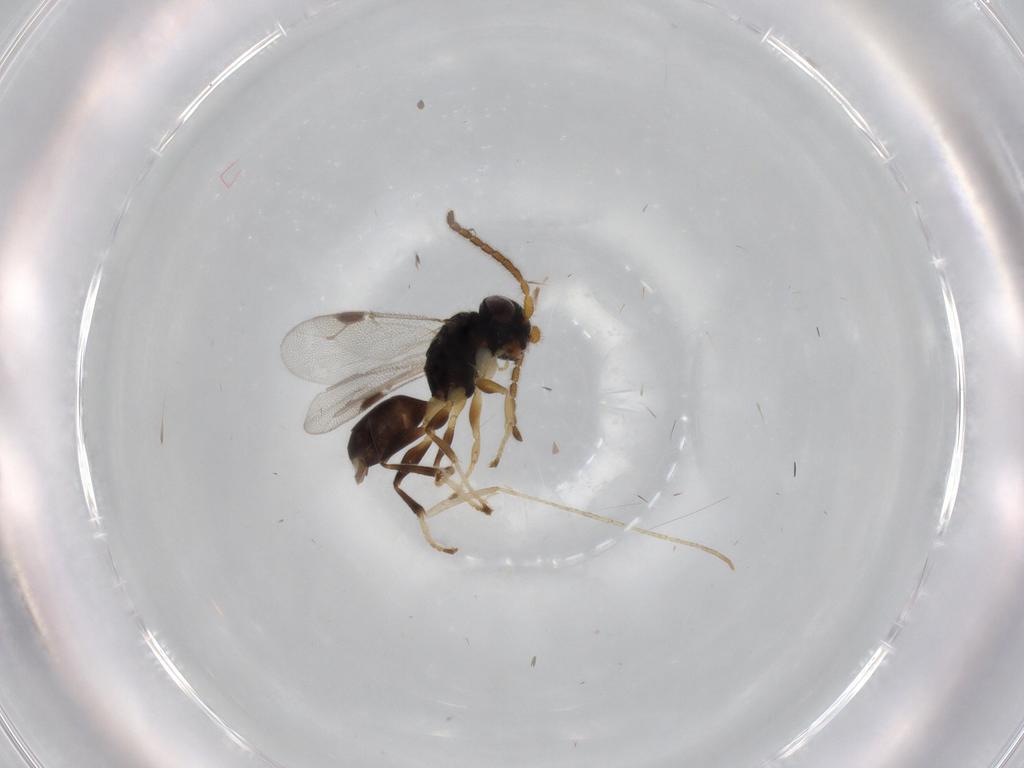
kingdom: Animalia
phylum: Arthropoda
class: Insecta
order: Hymenoptera
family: Dryinidae
